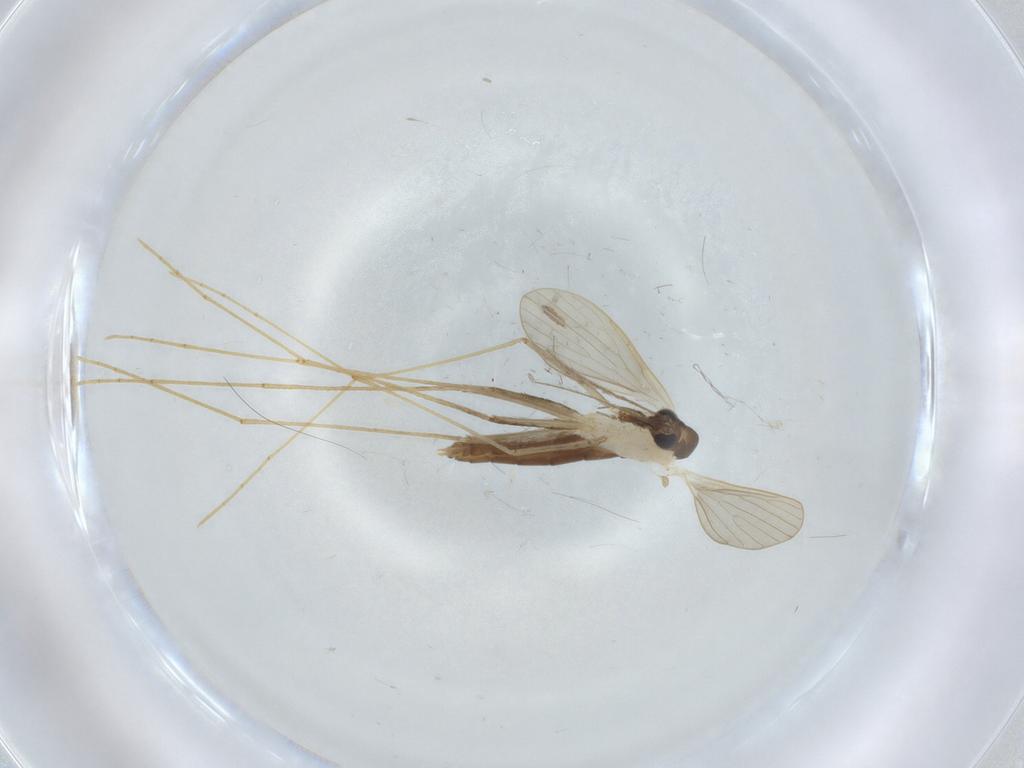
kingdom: Animalia
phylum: Arthropoda
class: Insecta
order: Diptera
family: Psychodidae
